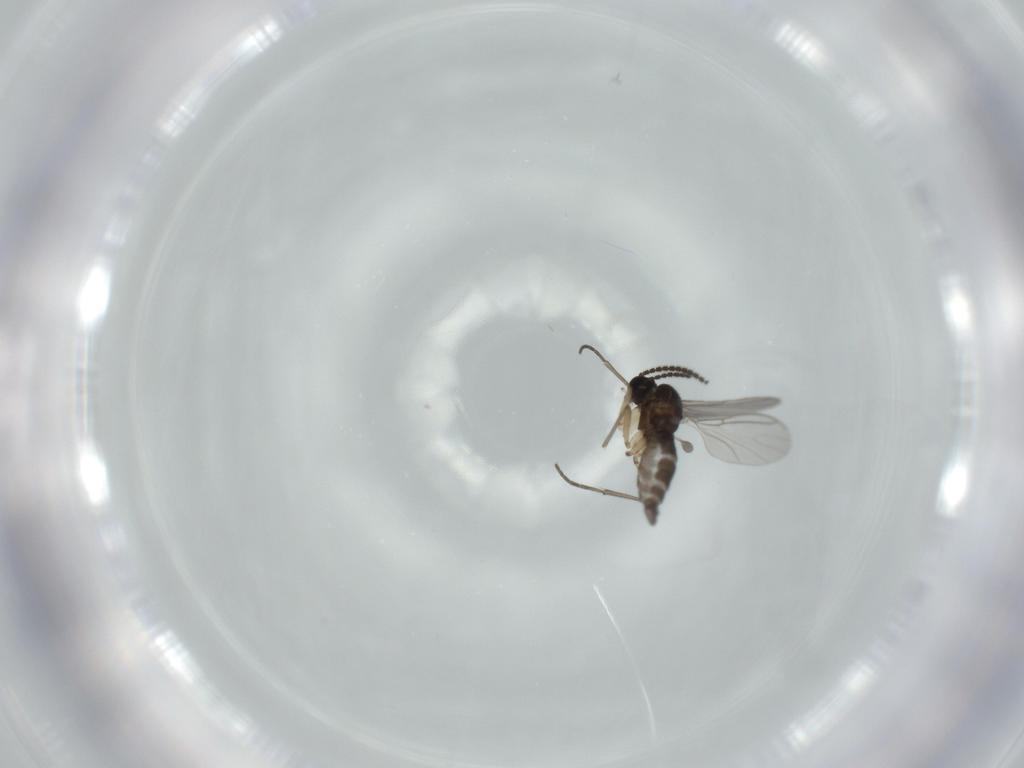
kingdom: Animalia
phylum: Arthropoda
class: Insecta
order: Diptera
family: Sciaridae
